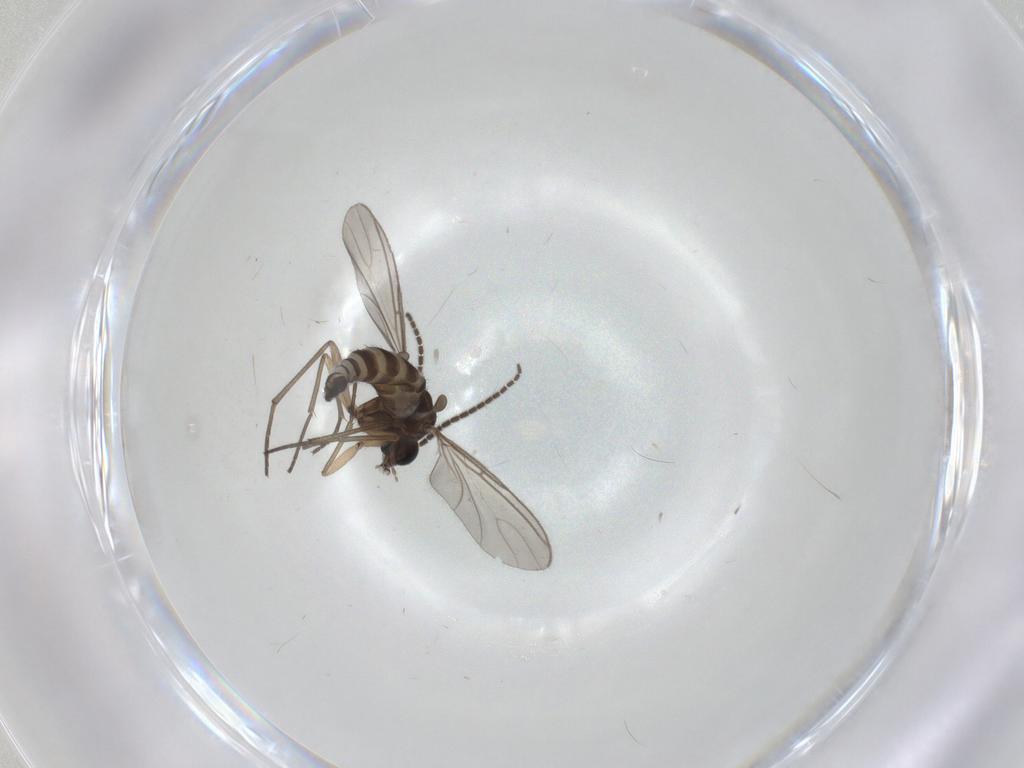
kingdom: Animalia
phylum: Arthropoda
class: Insecta
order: Diptera
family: Sciaridae
